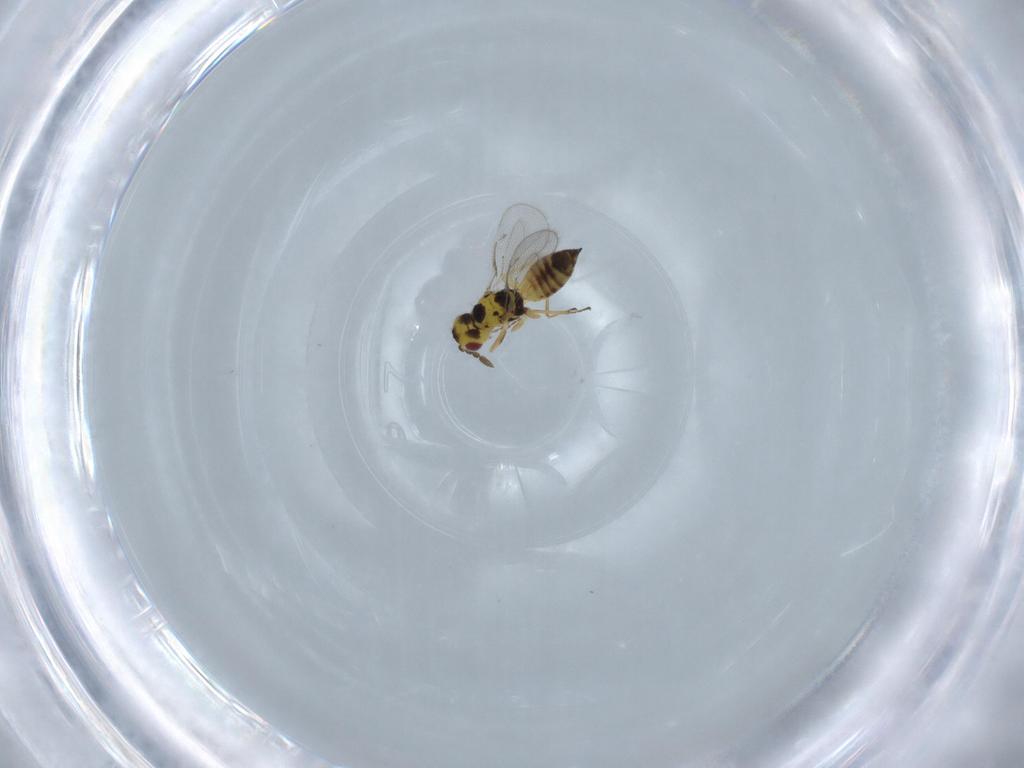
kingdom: Animalia
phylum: Arthropoda
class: Insecta
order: Hymenoptera
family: Eulophidae
